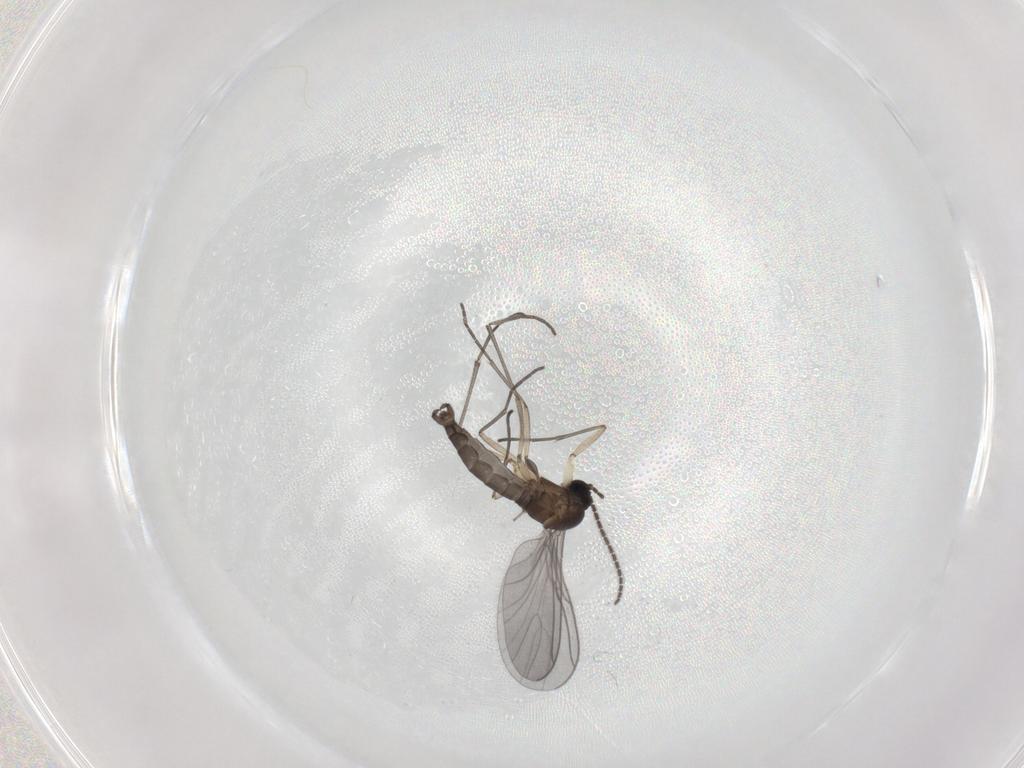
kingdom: Animalia
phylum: Arthropoda
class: Insecta
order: Diptera
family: Sciaridae
